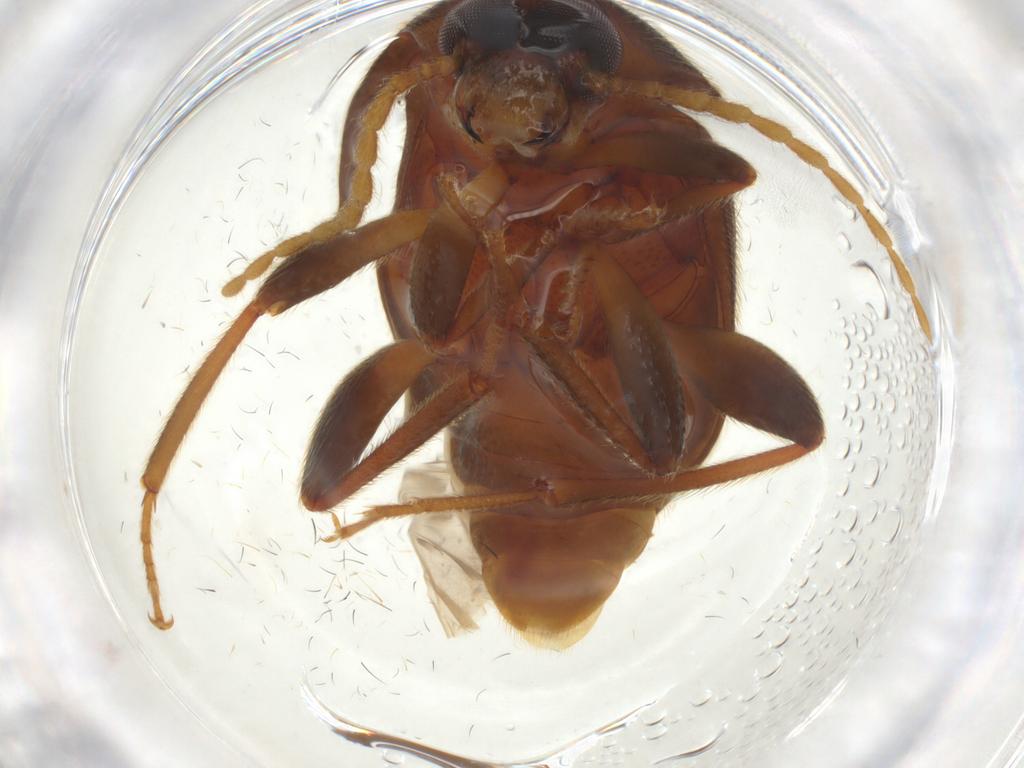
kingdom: Animalia
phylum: Arthropoda
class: Insecta
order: Coleoptera
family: Tenebrionidae
